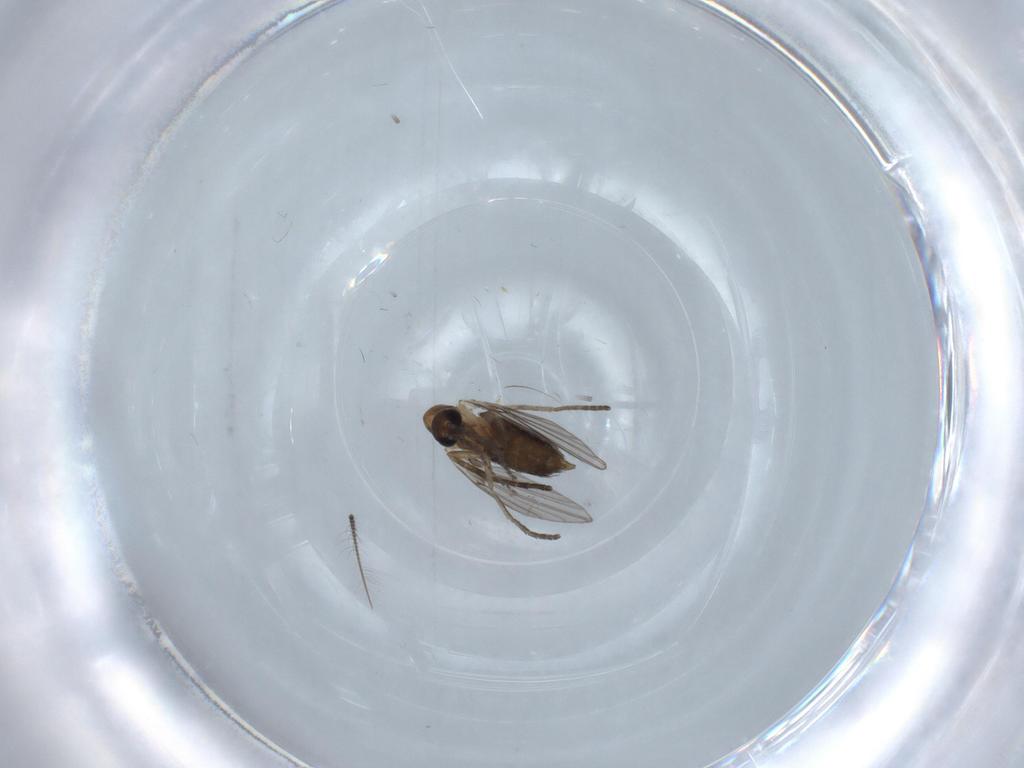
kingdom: Animalia
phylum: Arthropoda
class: Insecta
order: Diptera
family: Psychodidae
